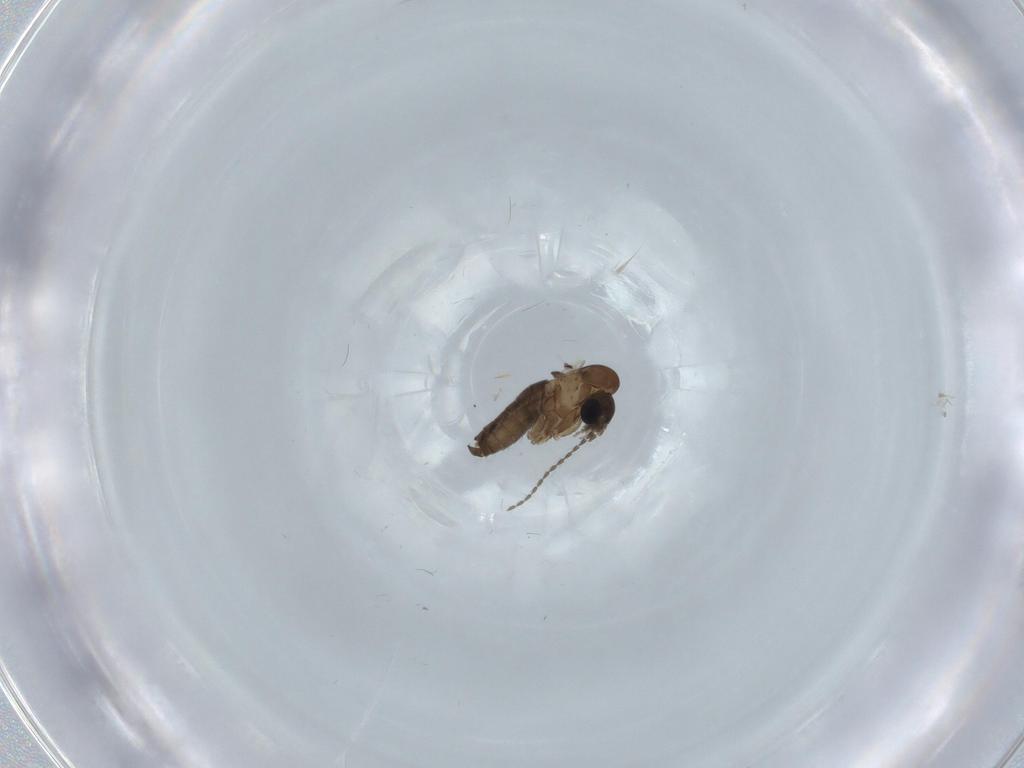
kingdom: Animalia
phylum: Arthropoda
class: Insecta
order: Diptera
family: Psychodidae
